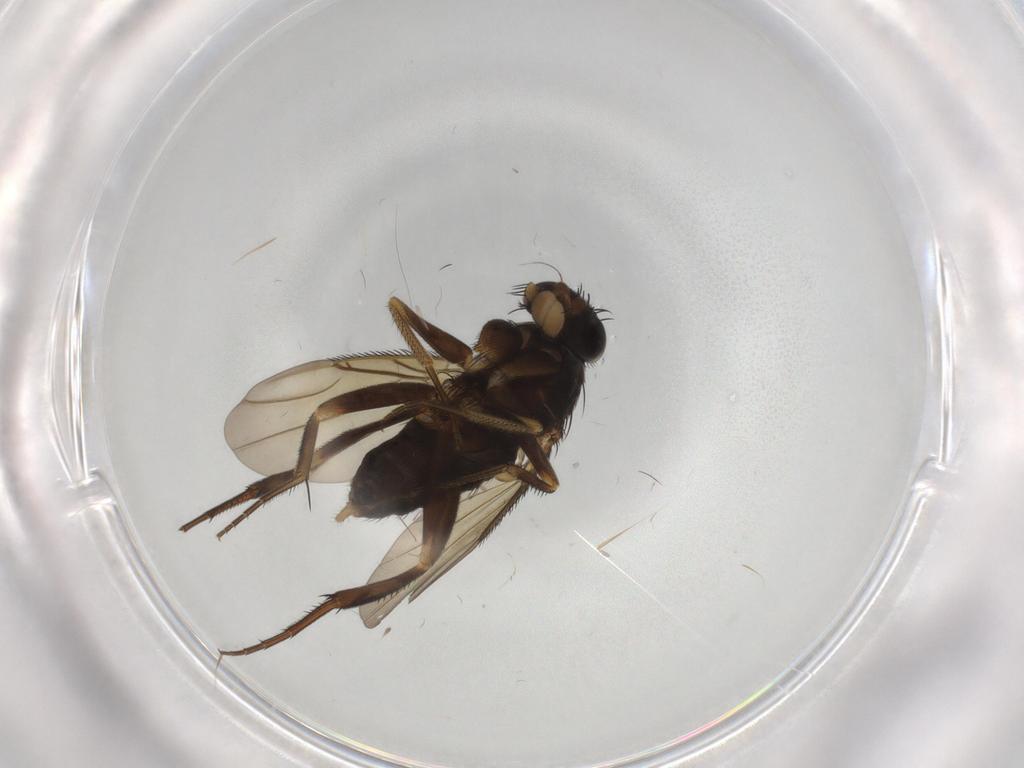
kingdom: Animalia
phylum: Arthropoda
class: Insecta
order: Diptera
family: Phoridae
